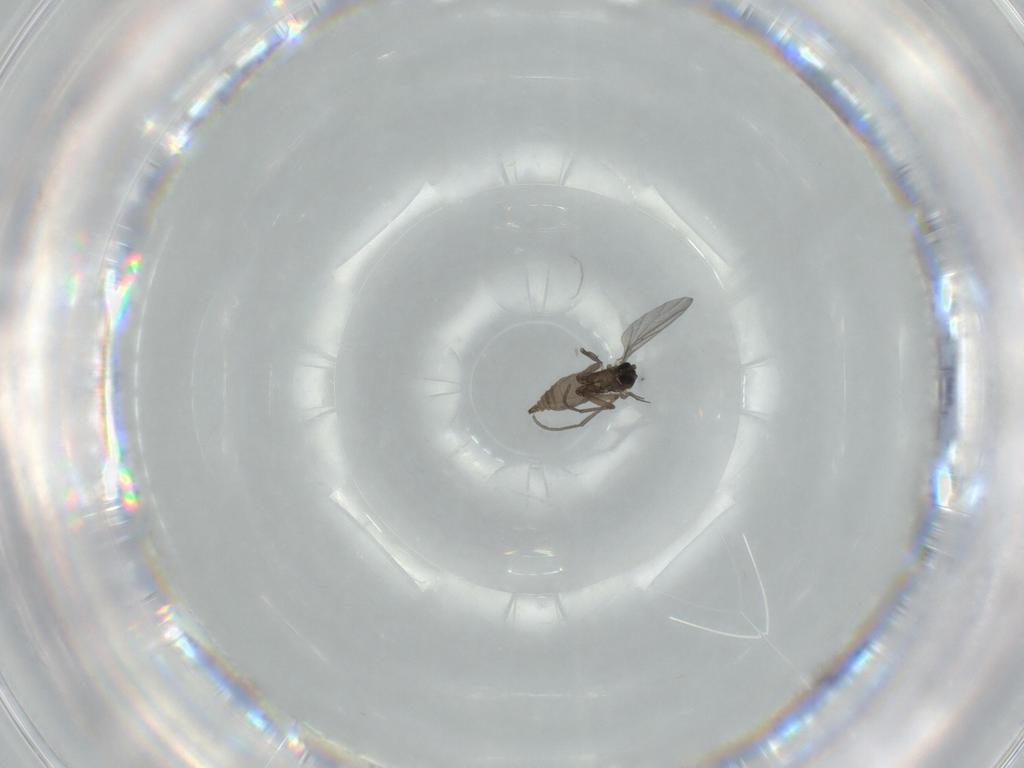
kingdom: Animalia
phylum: Arthropoda
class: Insecta
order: Diptera
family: Sciaridae
